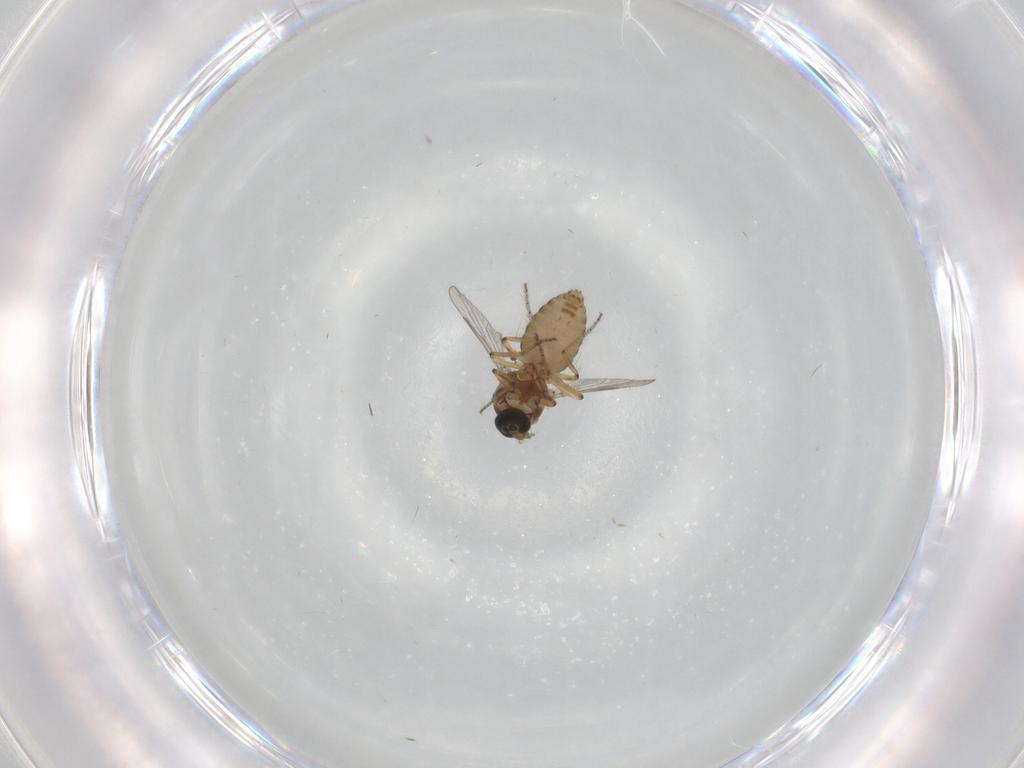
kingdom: Animalia
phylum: Arthropoda
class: Insecta
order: Diptera
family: Ceratopogonidae
